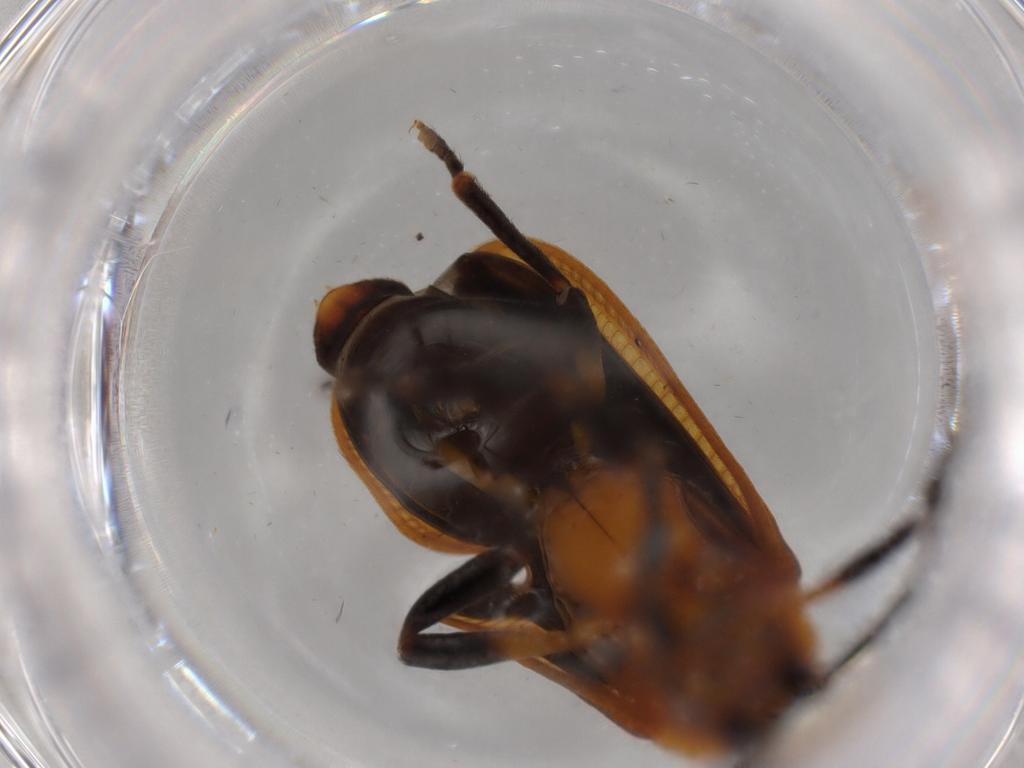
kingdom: Animalia
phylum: Arthropoda
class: Insecta
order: Coleoptera
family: Lycidae
